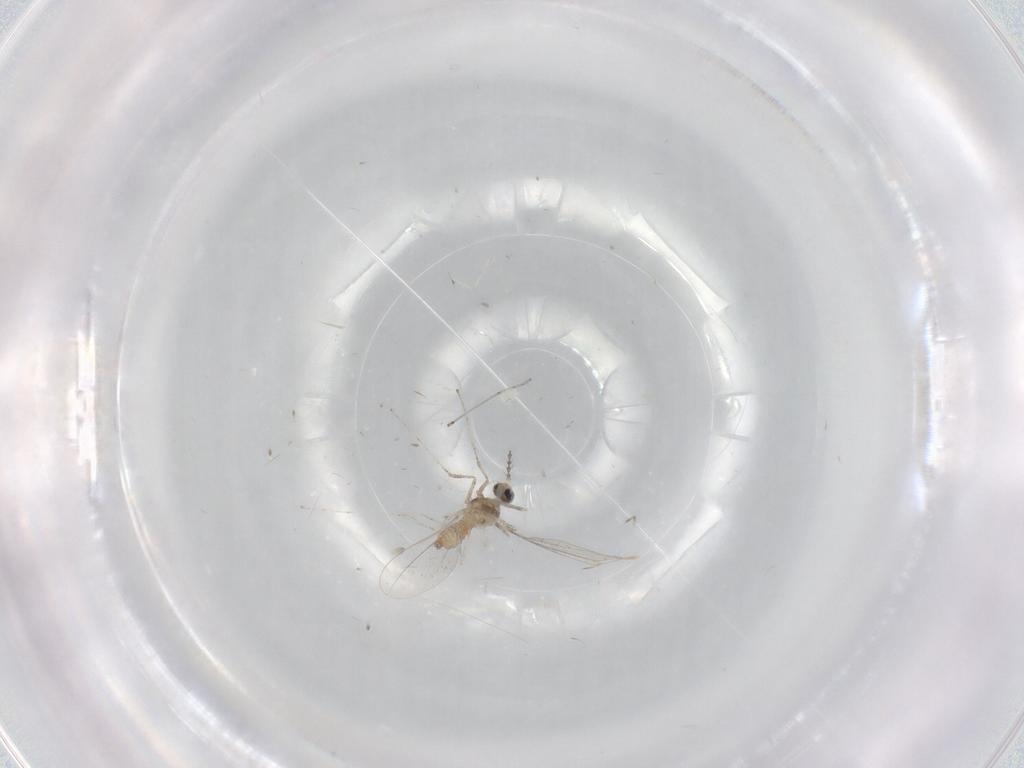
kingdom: Animalia
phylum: Arthropoda
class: Insecta
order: Diptera
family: Cecidomyiidae
